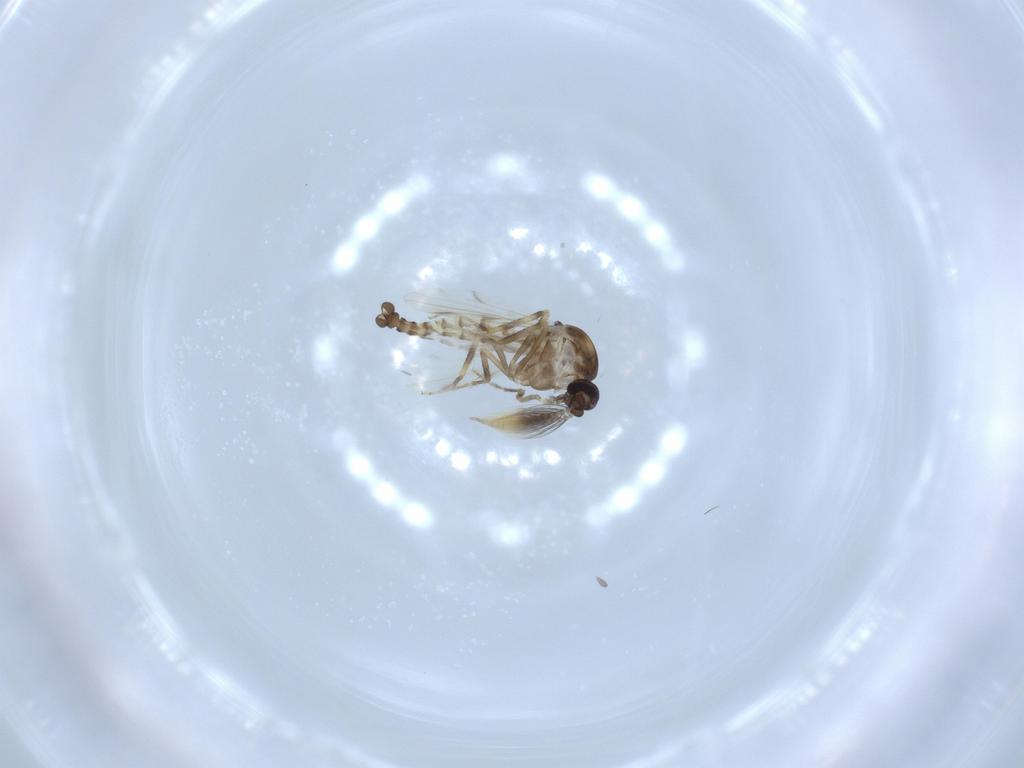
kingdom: Animalia
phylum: Arthropoda
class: Insecta
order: Diptera
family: Ceratopogonidae
